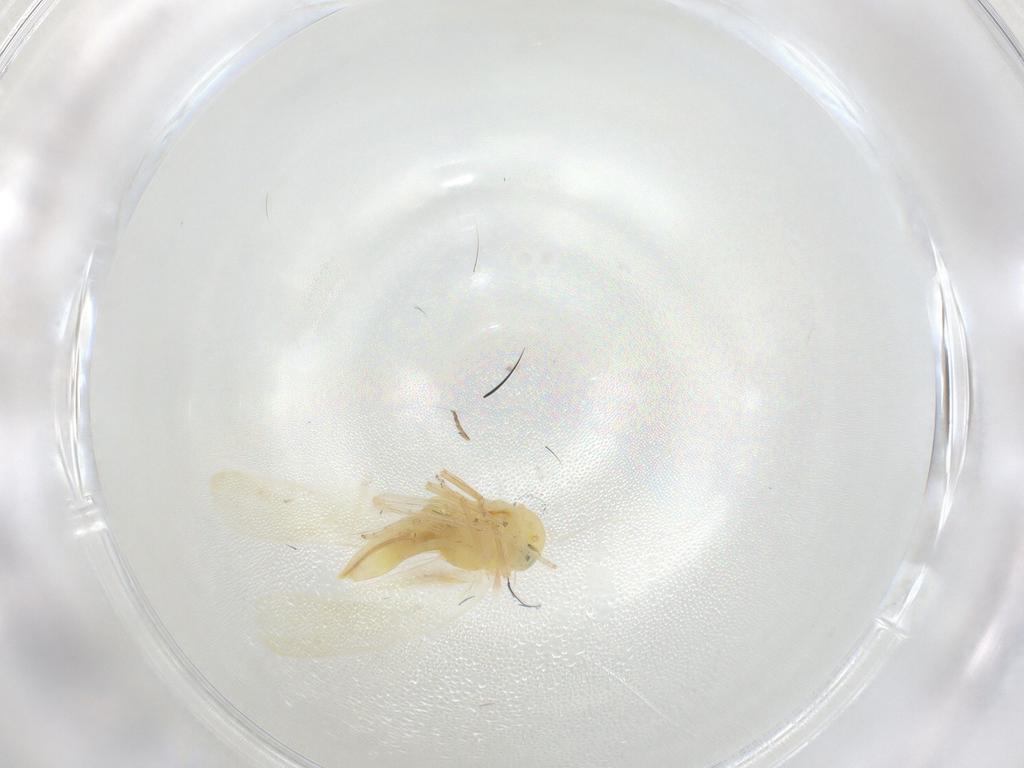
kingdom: Animalia
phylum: Arthropoda
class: Insecta
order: Hemiptera
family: Cicadellidae
